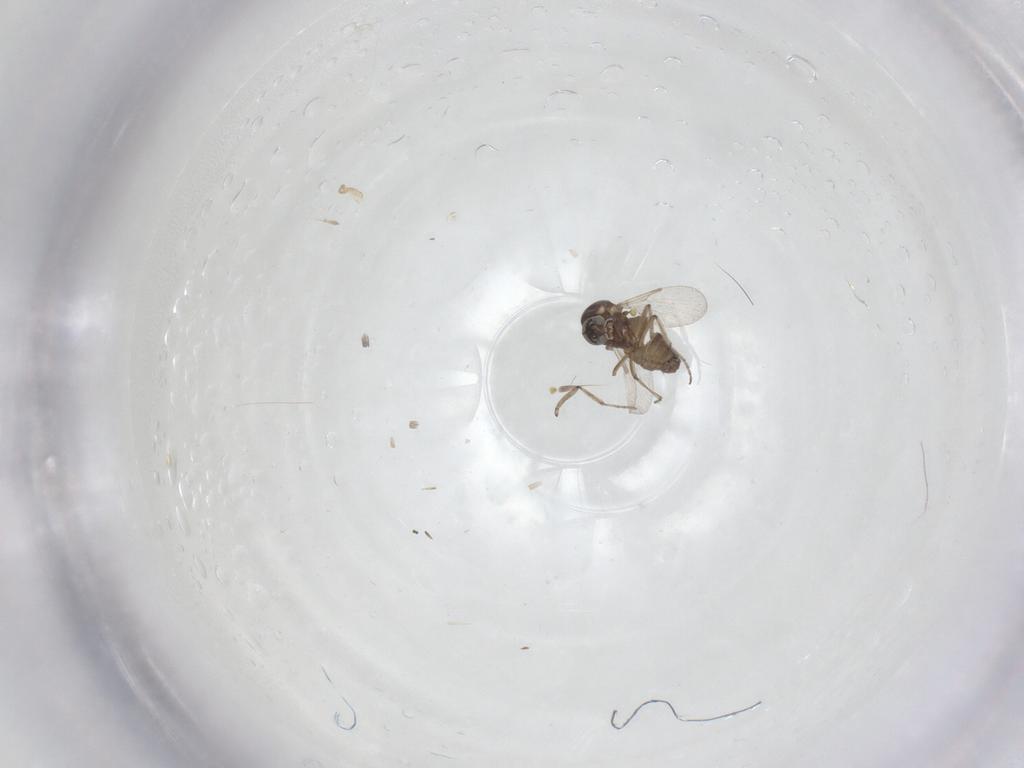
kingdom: Animalia
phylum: Arthropoda
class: Insecta
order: Diptera
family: Ceratopogonidae
